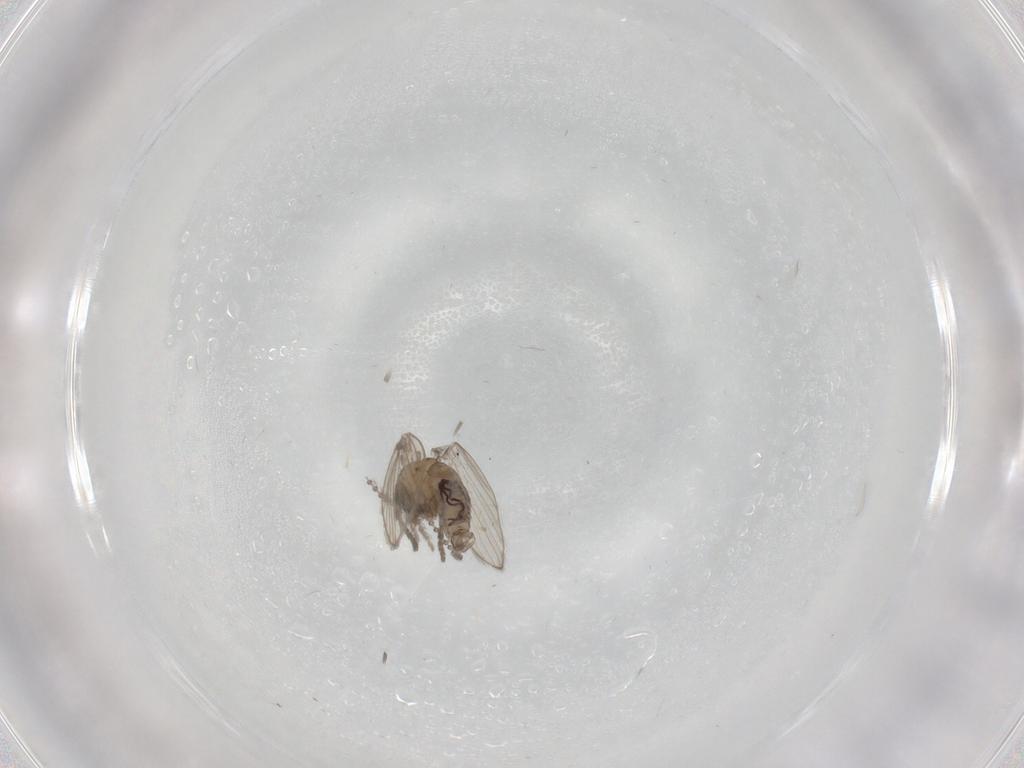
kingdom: Animalia
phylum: Arthropoda
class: Insecta
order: Diptera
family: Psychodidae
